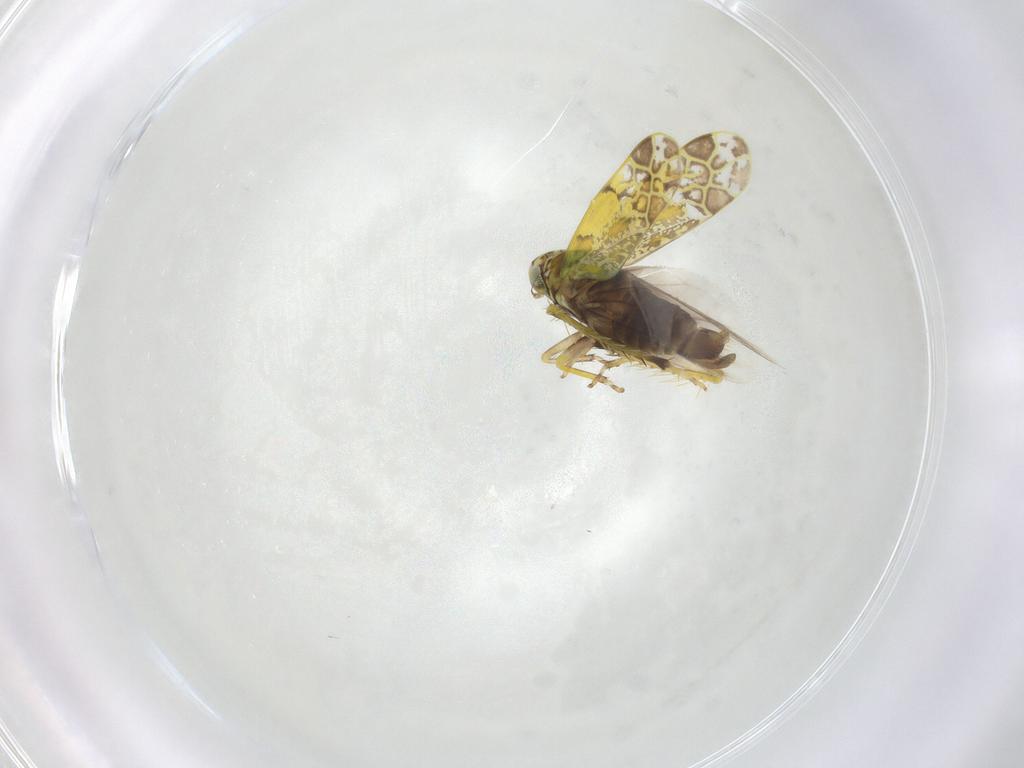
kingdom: Animalia
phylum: Arthropoda
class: Insecta
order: Hemiptera
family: Cicadellidae
